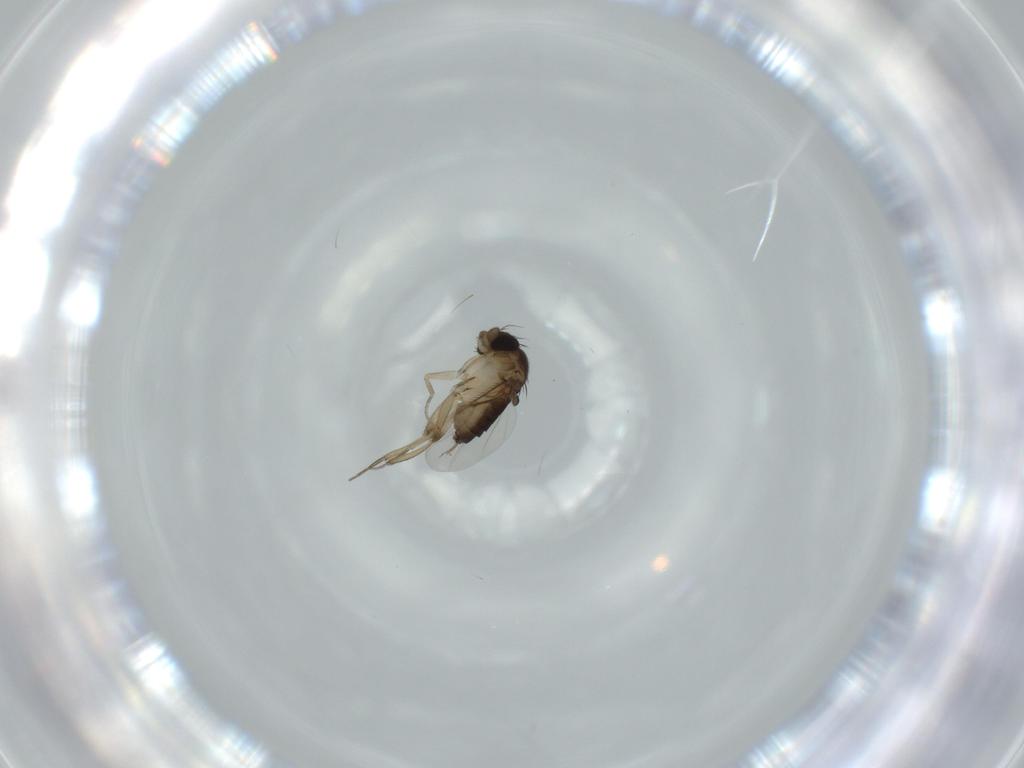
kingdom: Animalia
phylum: Arthropoda
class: Insecta
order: Diptera
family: Phoridae
